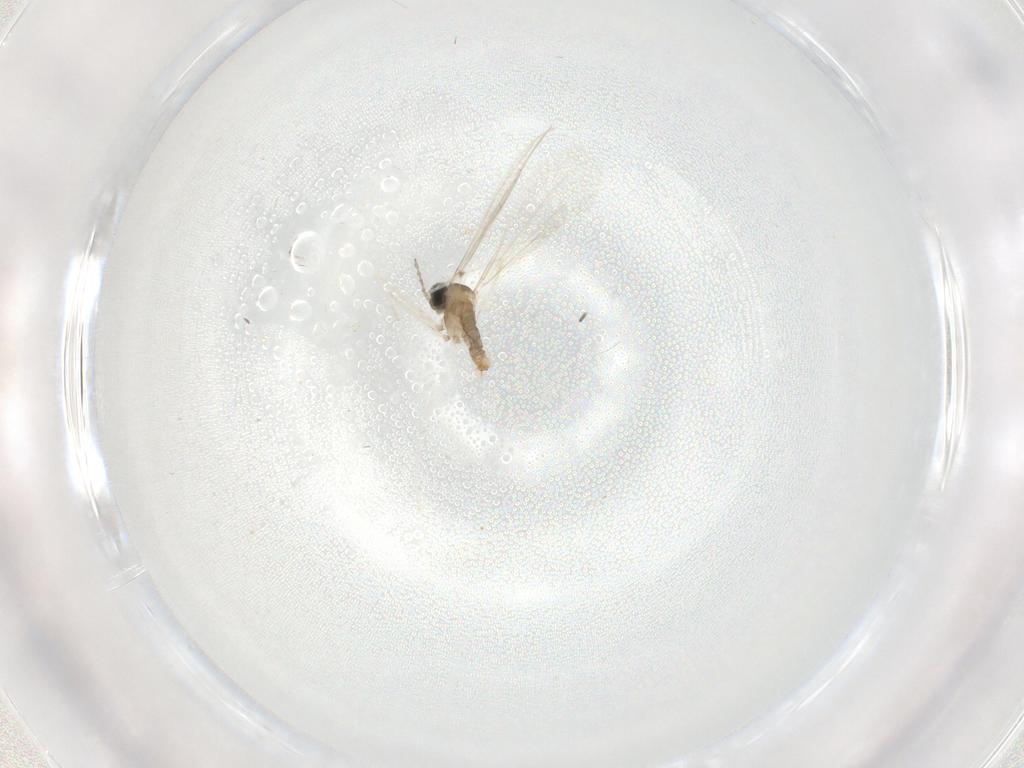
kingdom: Animalia
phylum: Arthropoda
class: Insecta
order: Diptera
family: Cecidomyiidae
